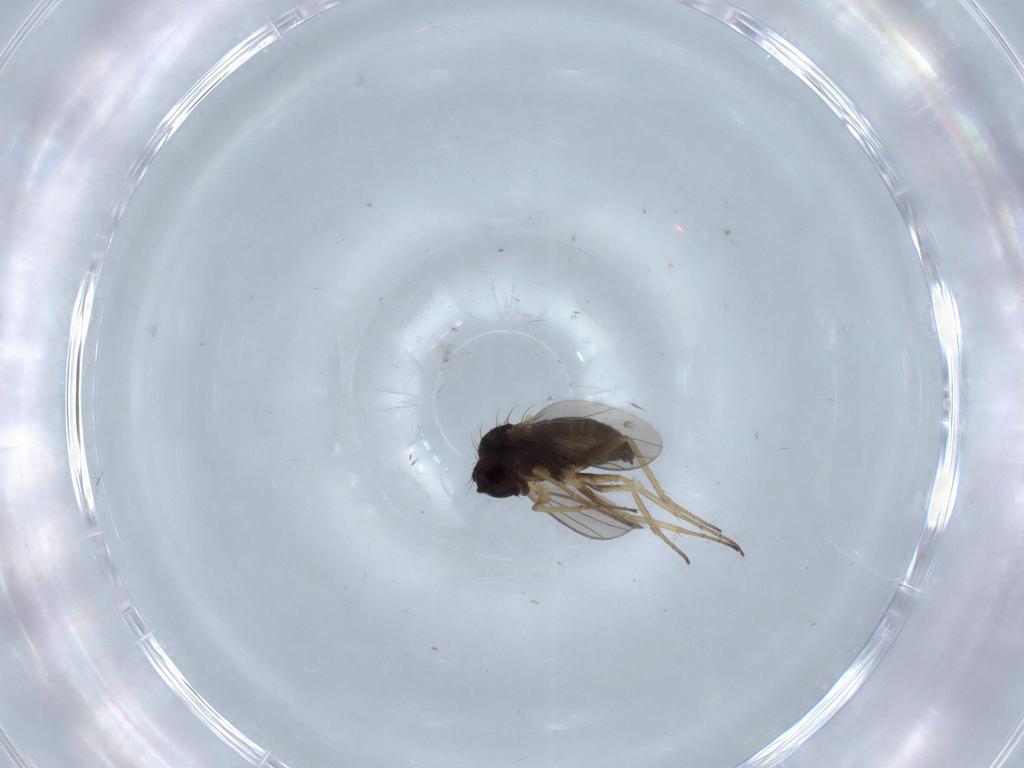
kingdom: Animalia
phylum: Arthropoda
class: Insecta
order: Diptera
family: Dolichopodidae
